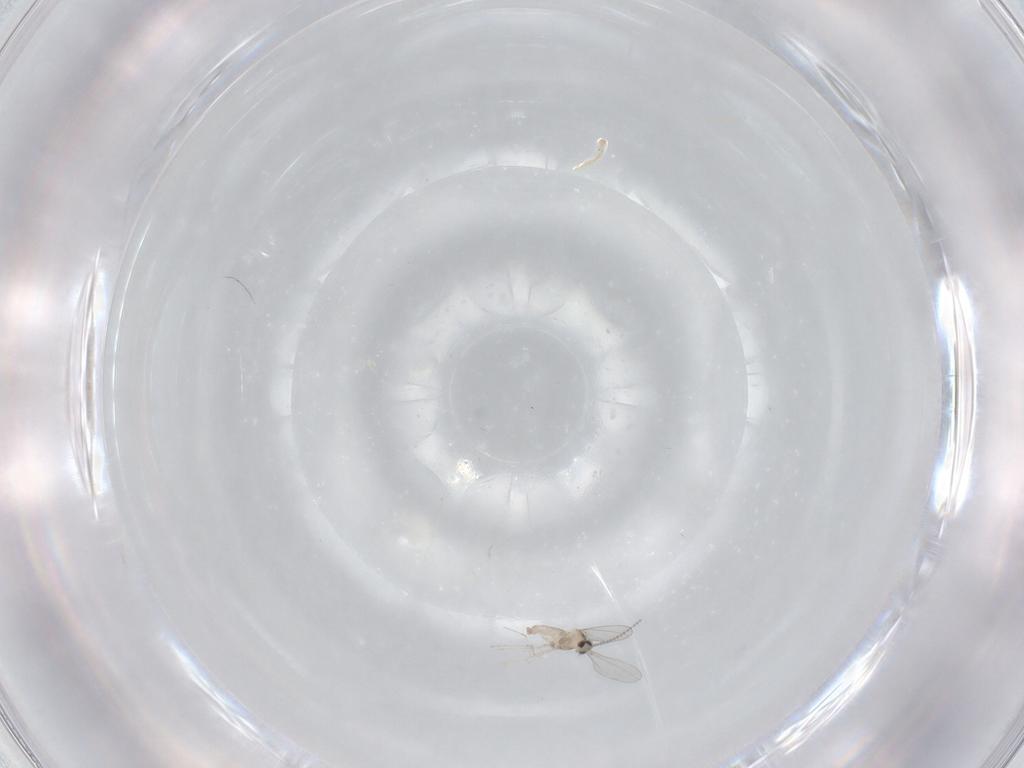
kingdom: Animalia
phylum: Arthropoda
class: Insecta
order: Diptera
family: Cecidomyiidae
